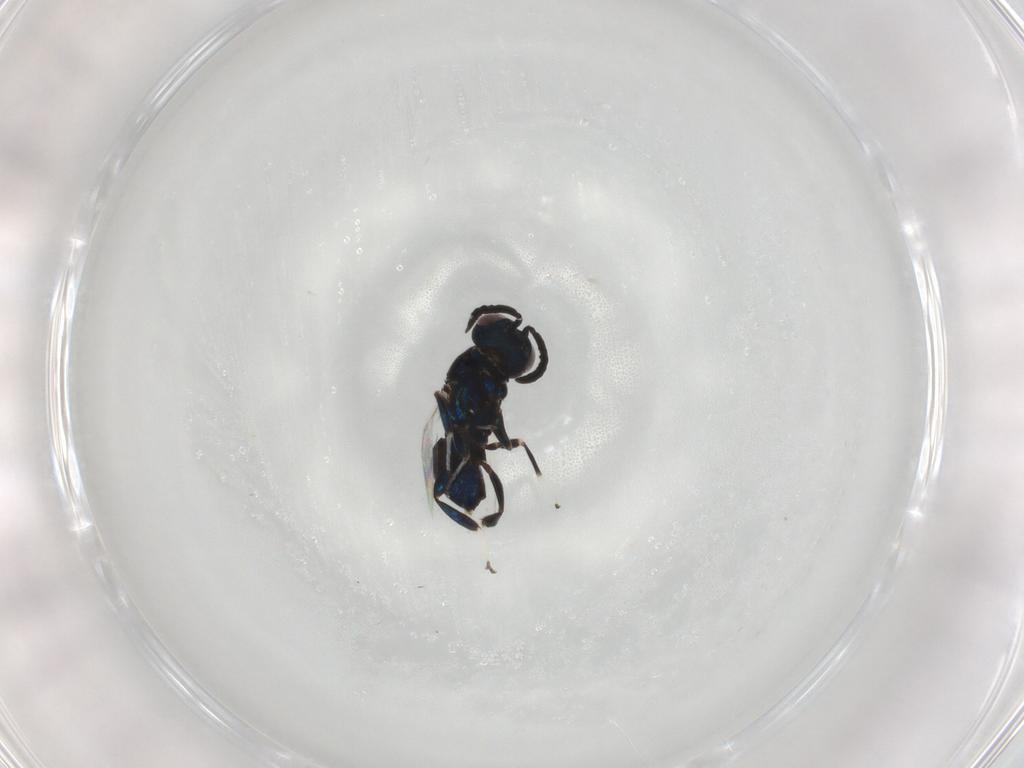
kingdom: Animalia
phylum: Arthropoda
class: Insecta
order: Hymenoptera
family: Eupelmidae
